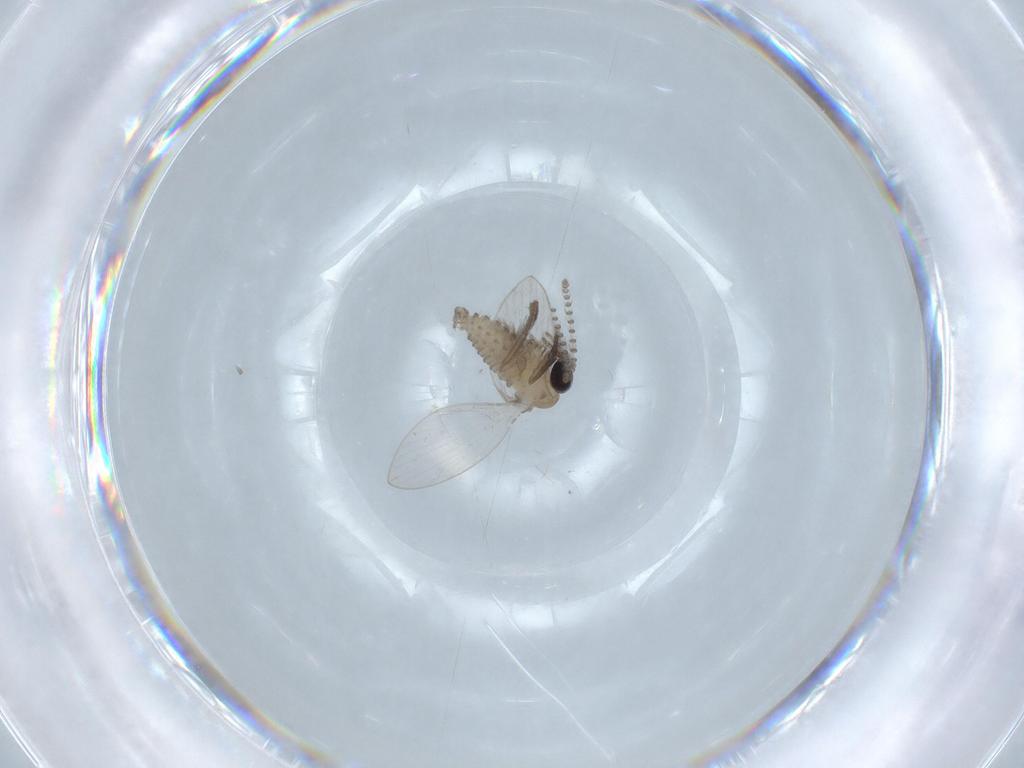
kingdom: Animalia
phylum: Arthropoda
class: Insecta
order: Diptera
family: Psychodidae
